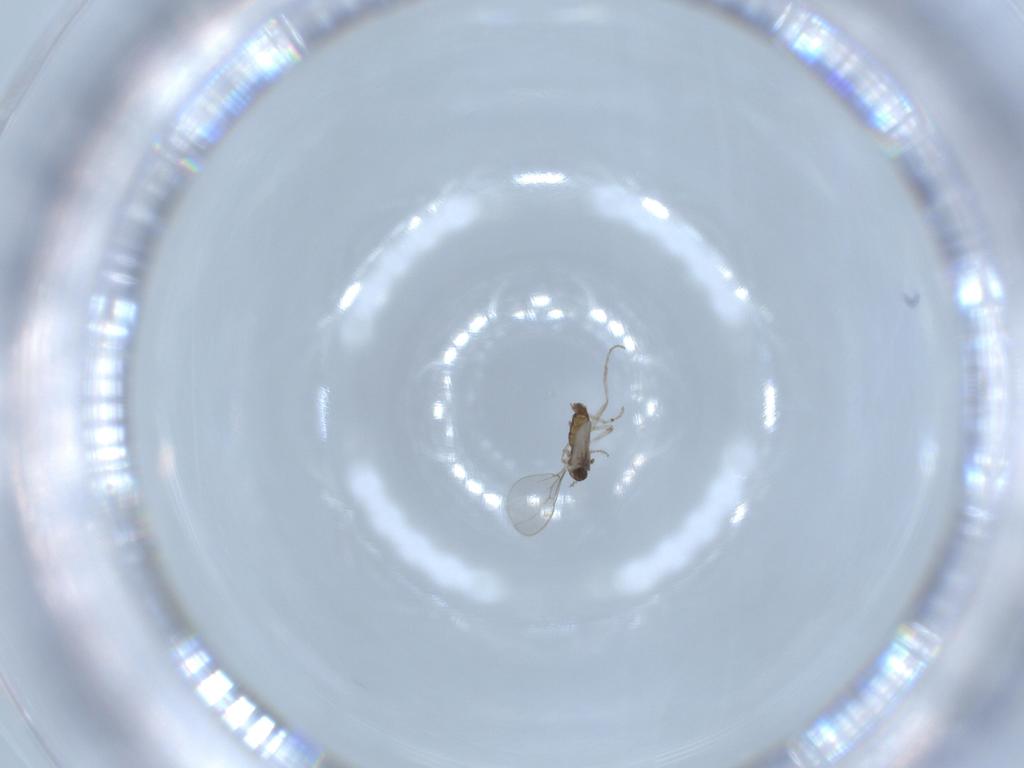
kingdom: Animalia
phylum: Arthropoda
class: Insecta
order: Diptera
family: Cecidomyiidae
